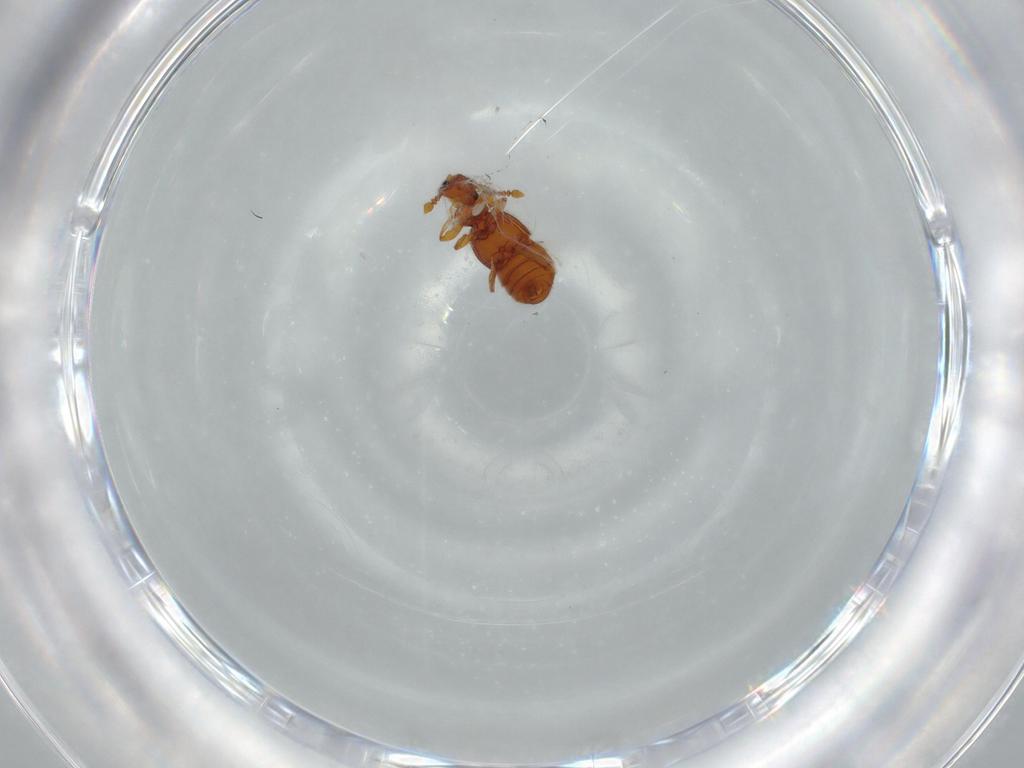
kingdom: Animalia
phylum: Arthropoda
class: Insecta
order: Coleoptera
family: Staphylinidae
